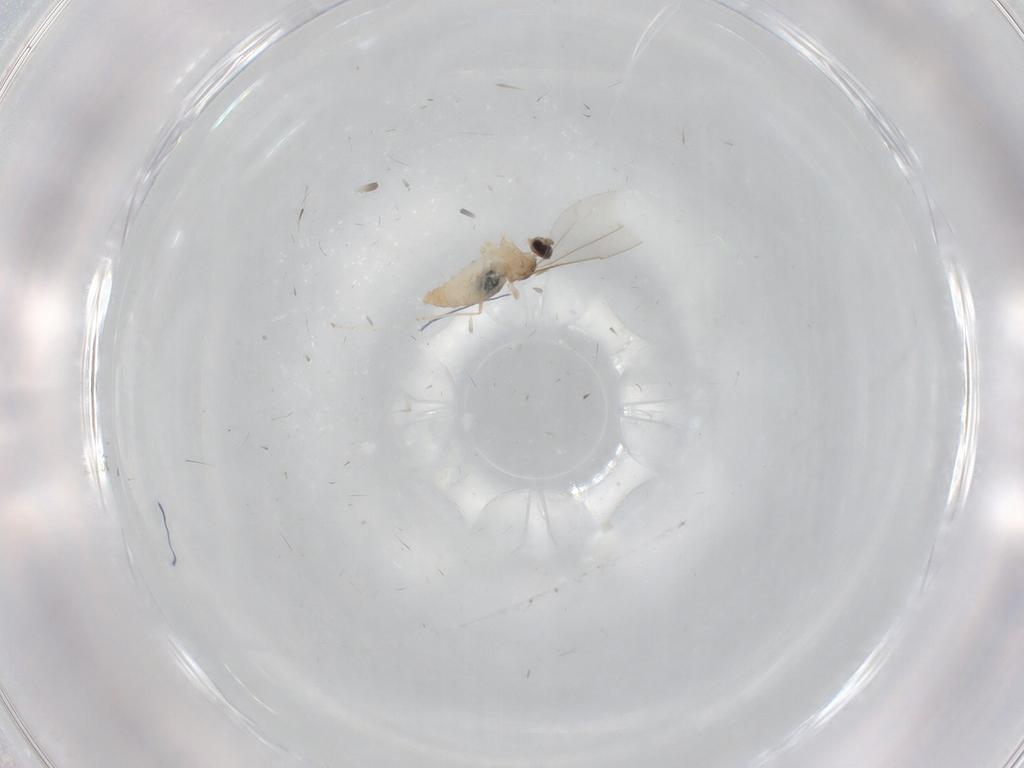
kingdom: Animalia
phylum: Arthropoda
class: Insecta
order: Diptera
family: Cecidomyiidae
